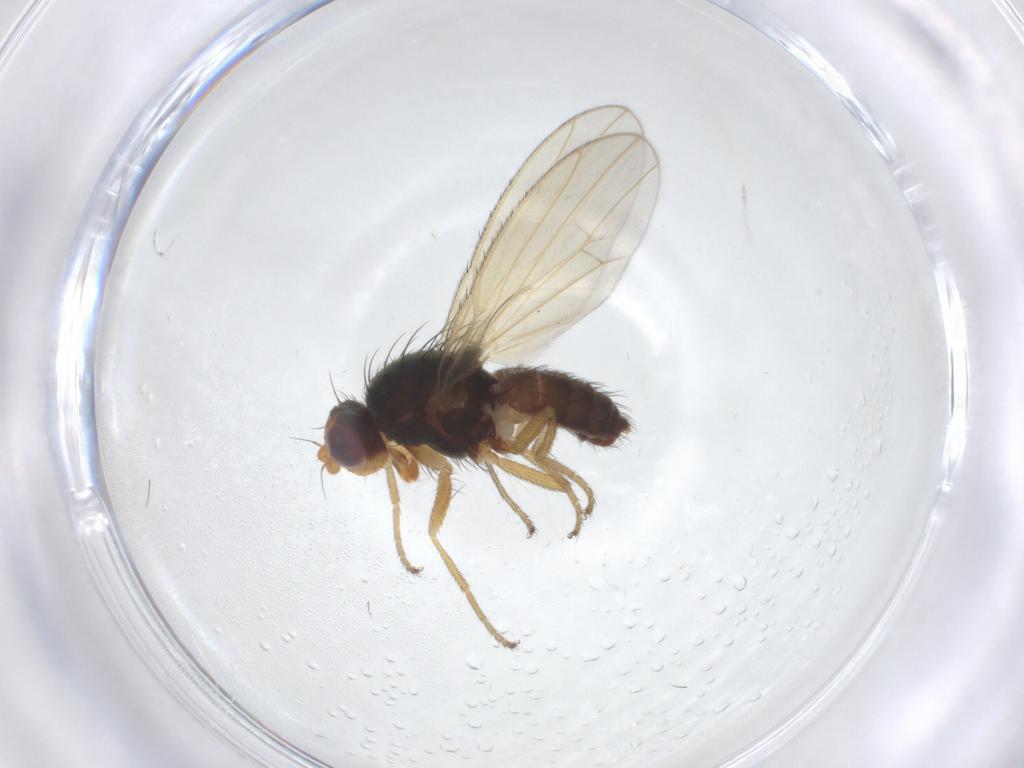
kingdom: Animalia
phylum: Arthropoda
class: Insecta
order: Diptera
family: Heleomyzidae
